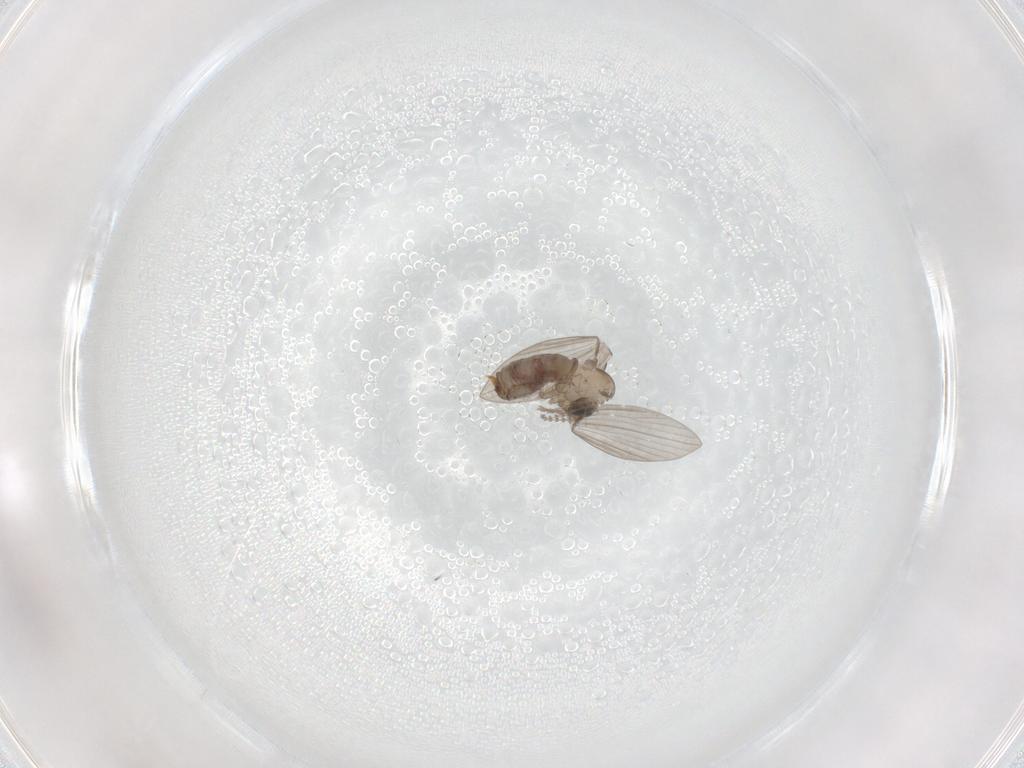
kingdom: Animalia
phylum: Arthropoda
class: Insecta
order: Diptera
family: Psychodidae
